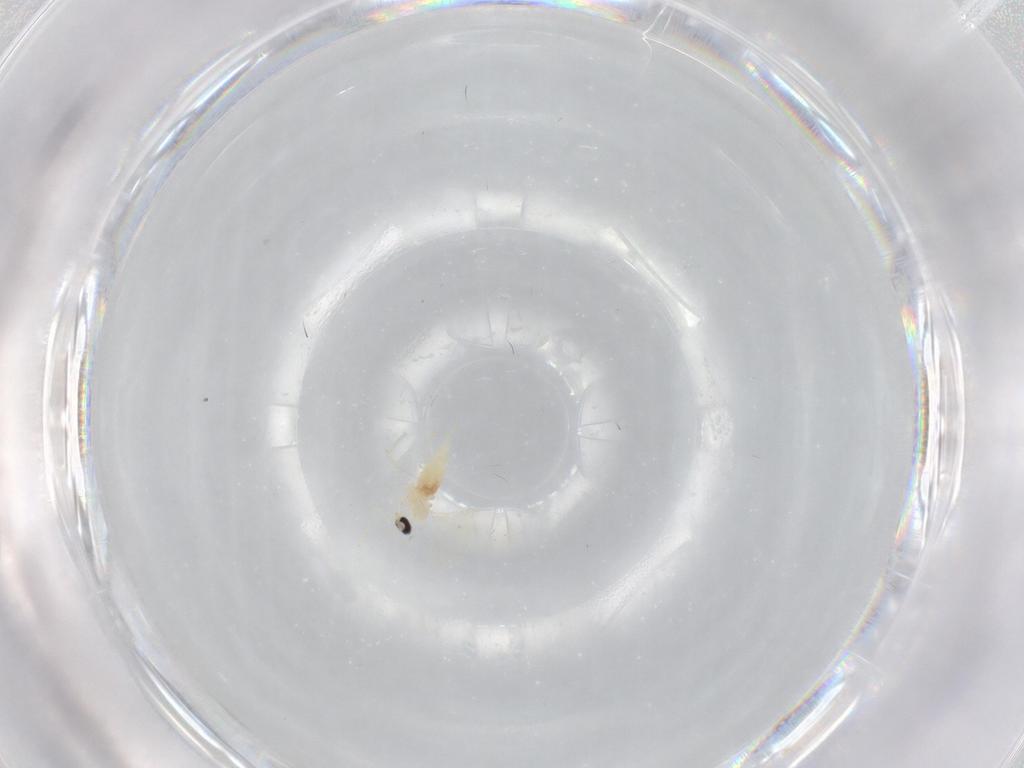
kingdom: Animalia
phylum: Arthropoda
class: Insecta
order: Diptera
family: Cecidomyiidae
